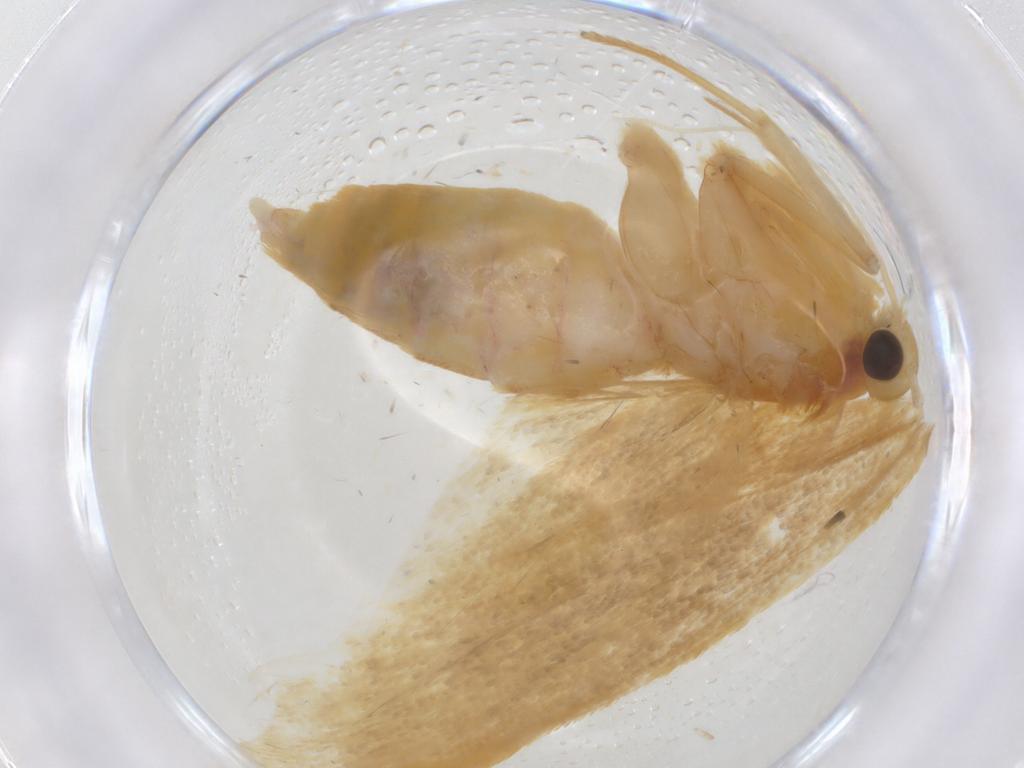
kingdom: Animalia
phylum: Arthropoda
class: Insecta
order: Lepidoptera
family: Lecithoceridae
